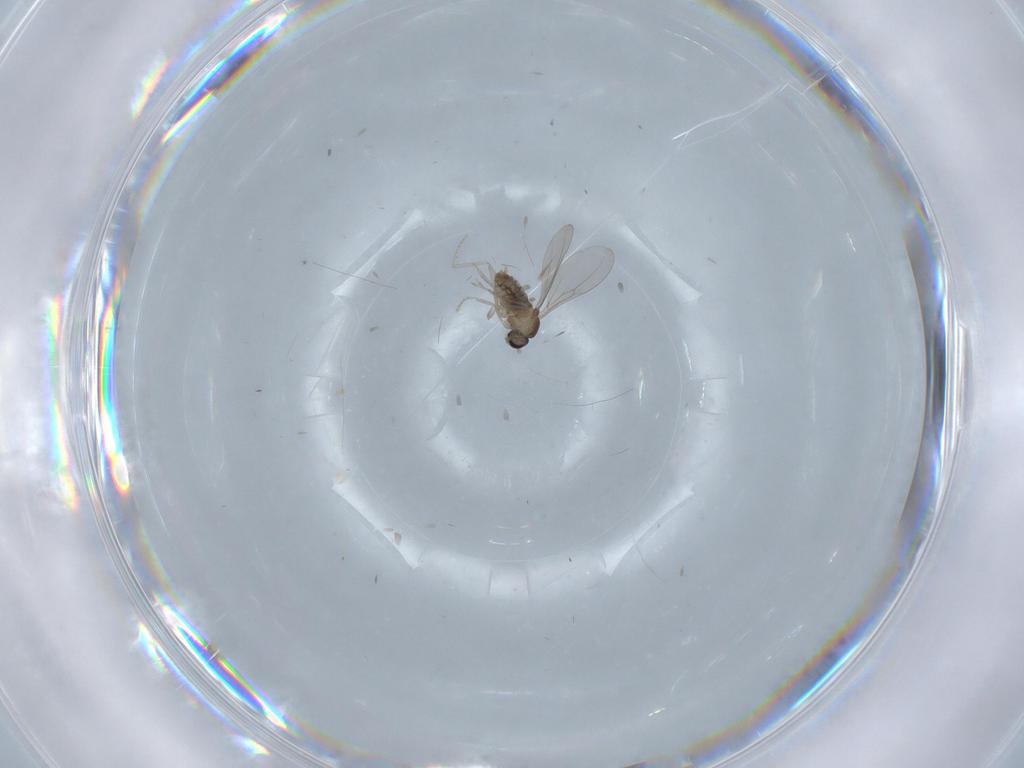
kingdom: Animalia
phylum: Arthropoda
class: Insecta
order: Diptera
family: Cecidomyiidae
